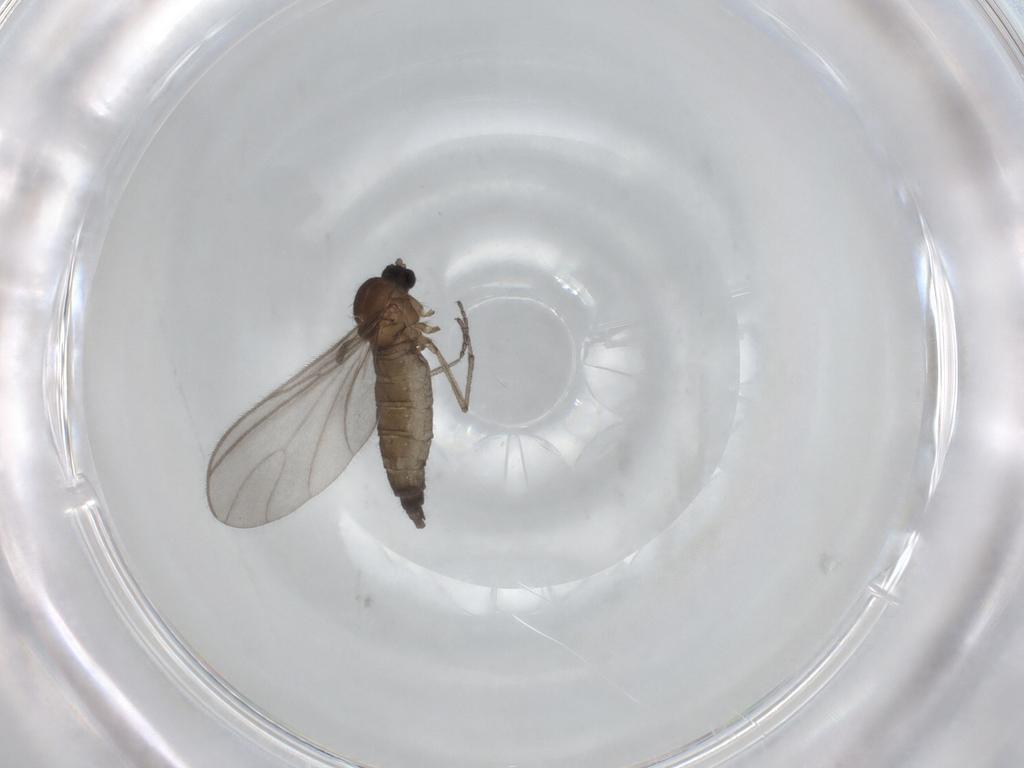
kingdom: Animalia
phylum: Arthropoda
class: Insecta
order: Diptera
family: Sciaridae
